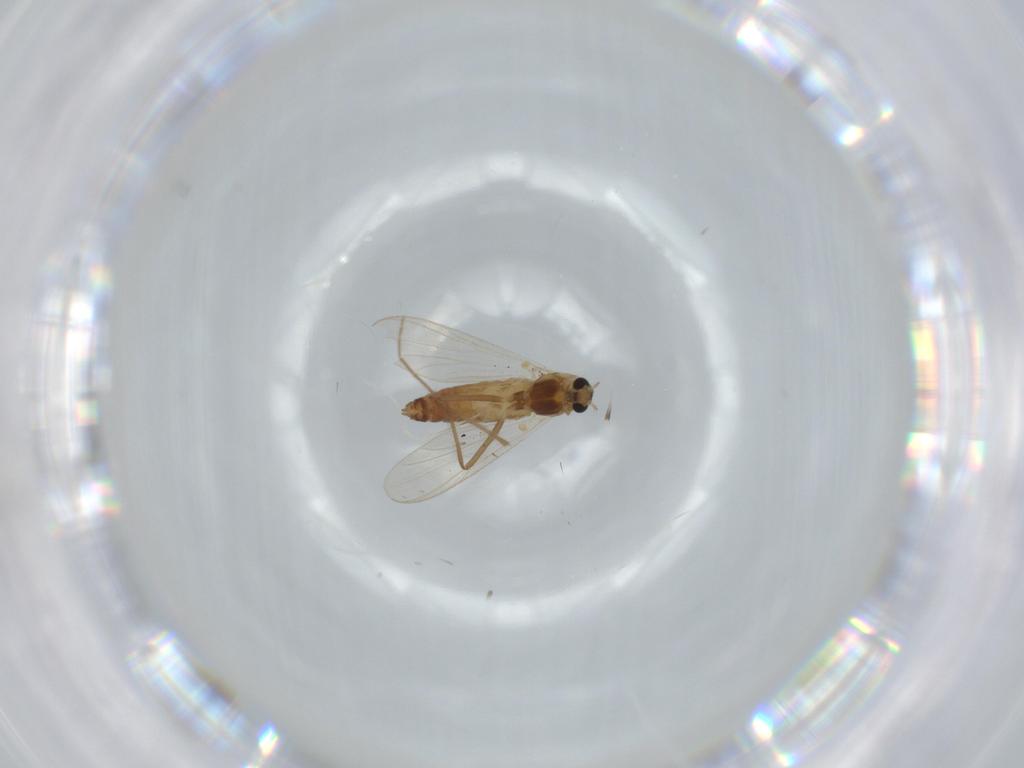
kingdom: Animalia
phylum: Arthropoda
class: Insecta
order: Diptera
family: Chironomidae
